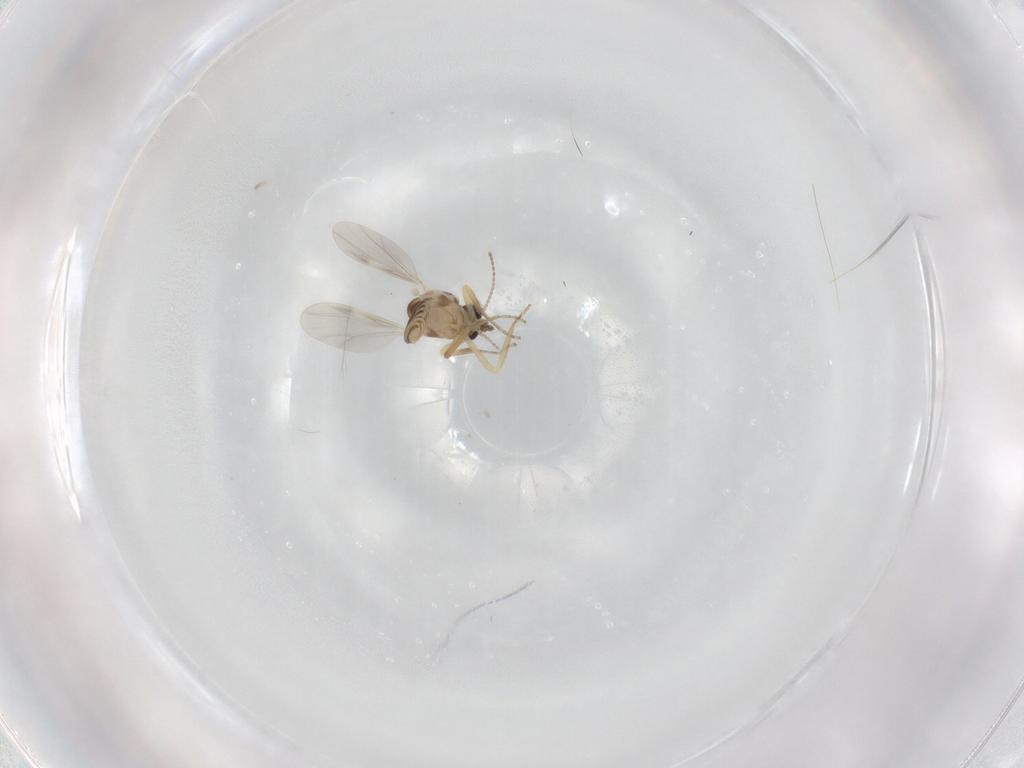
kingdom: Animalia
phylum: Arthropoda
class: Insecta
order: Diptera
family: Ceratopogonidae
